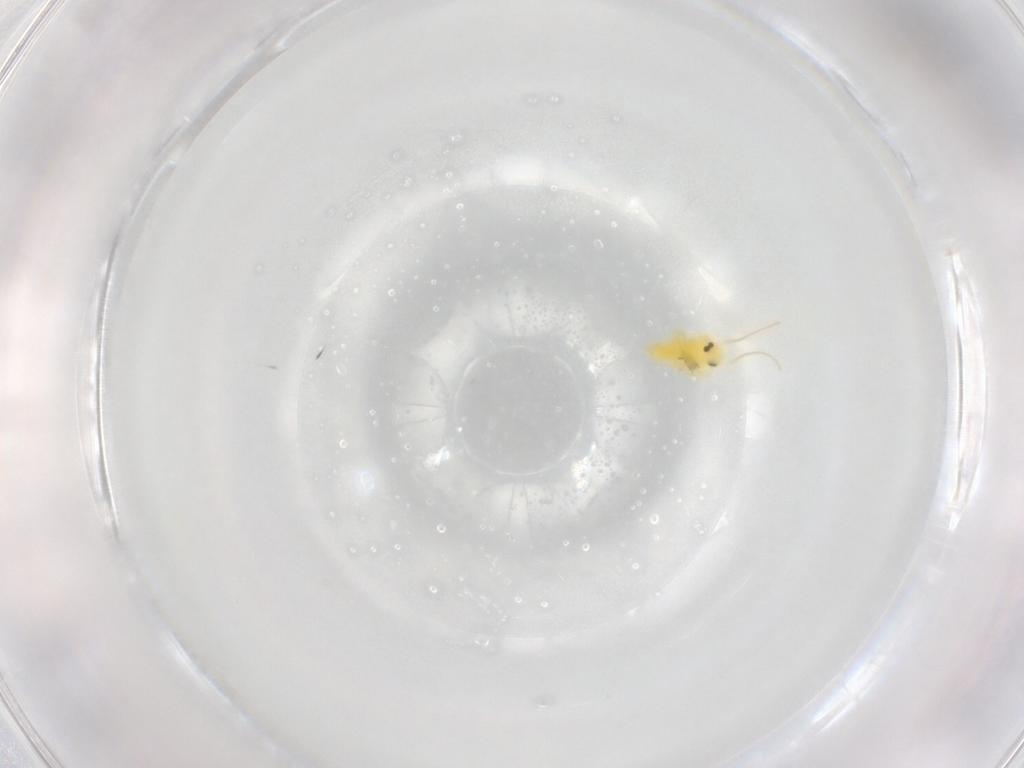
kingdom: Animalia
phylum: Arthropoda
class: Insecta
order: Hemiptera
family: Aleyrodidae
